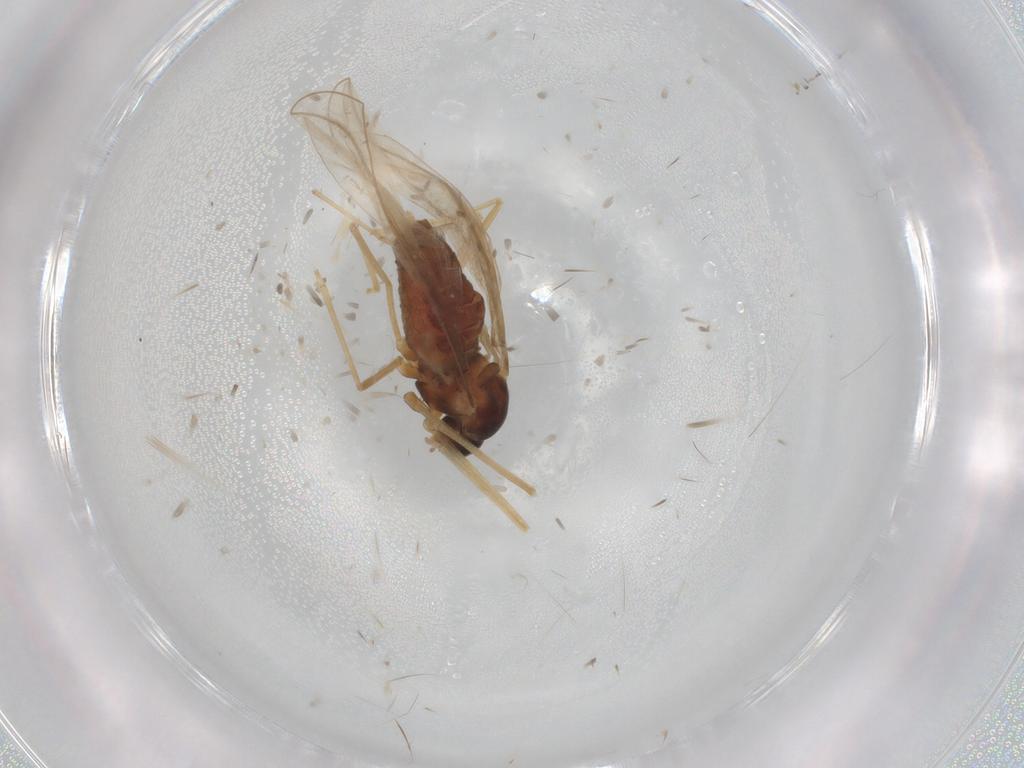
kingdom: Animalia
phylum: Arthropoda
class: Insecta
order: Diptera
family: Cecidomyiidae
